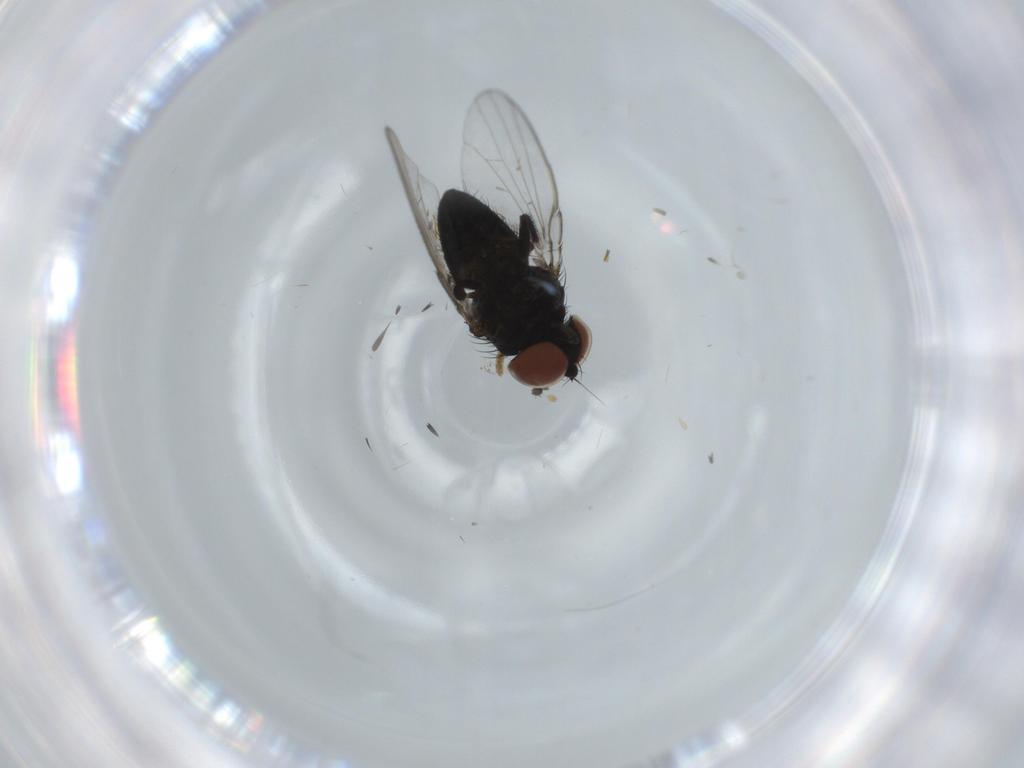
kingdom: Animalia
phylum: Arthropoda
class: Insecta
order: Diptera
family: Milichiidae
